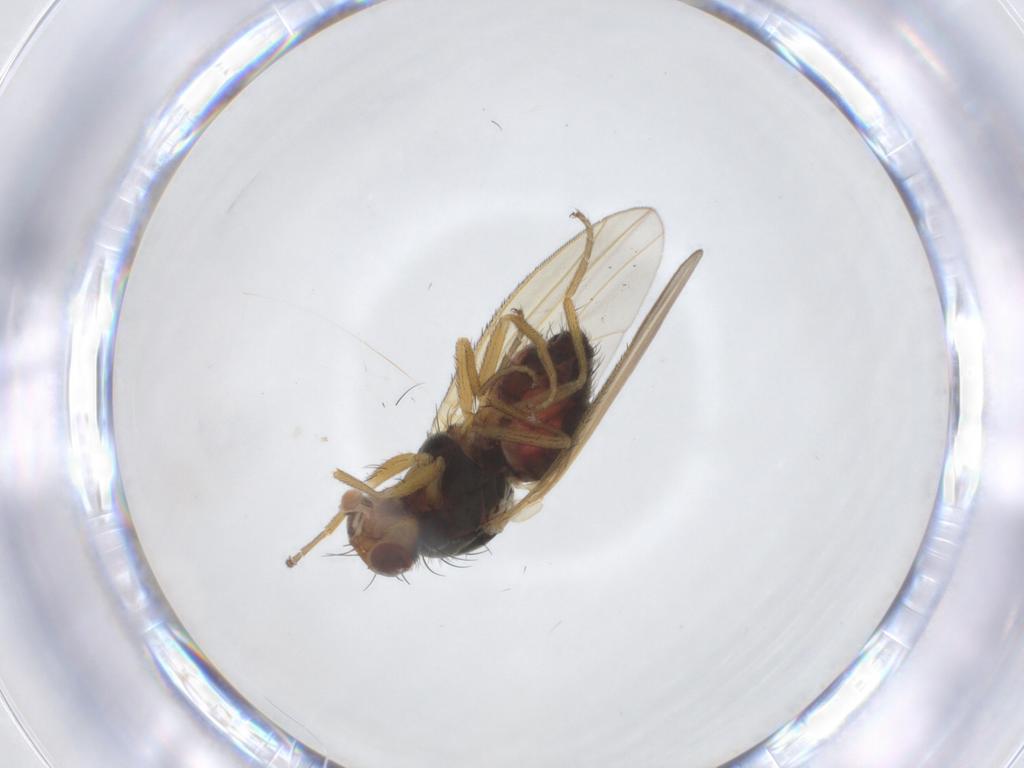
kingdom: Animalia
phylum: Arthropoda
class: Insecta
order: Diptera
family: Heleomyzidae
